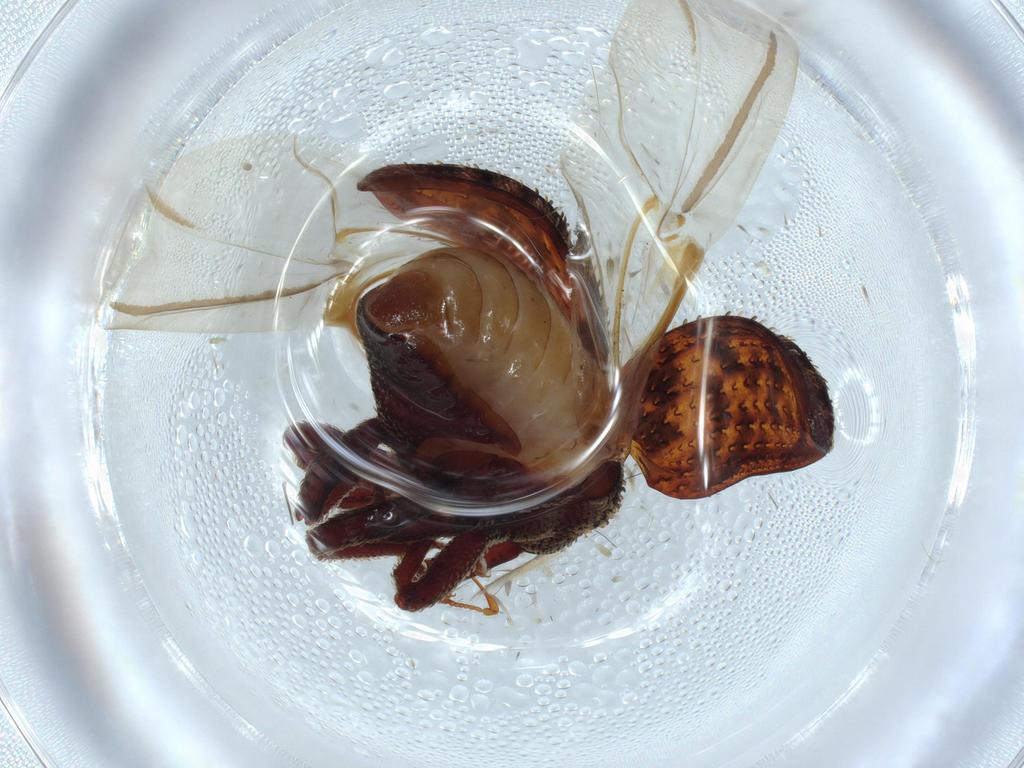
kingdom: Animalia
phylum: Arthropoda
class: Insecta
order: Coleoptera
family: Curculionidae
